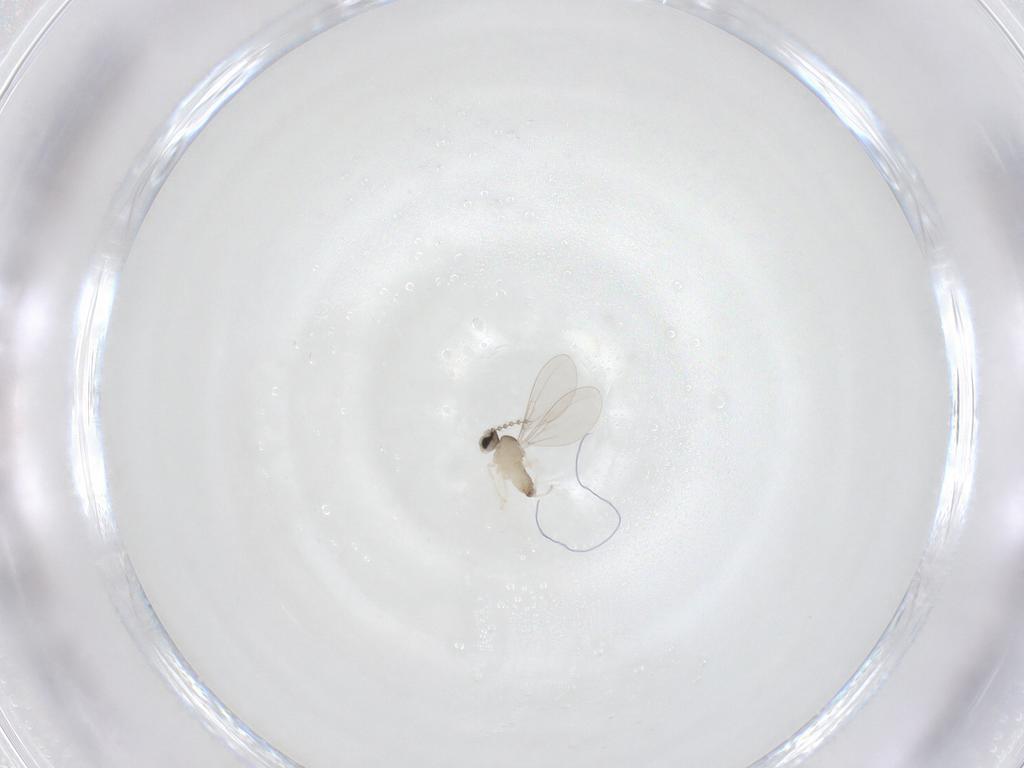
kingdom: Animalia
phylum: Arthropoda
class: Insecta
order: Diptera
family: Cecidomyiidae
